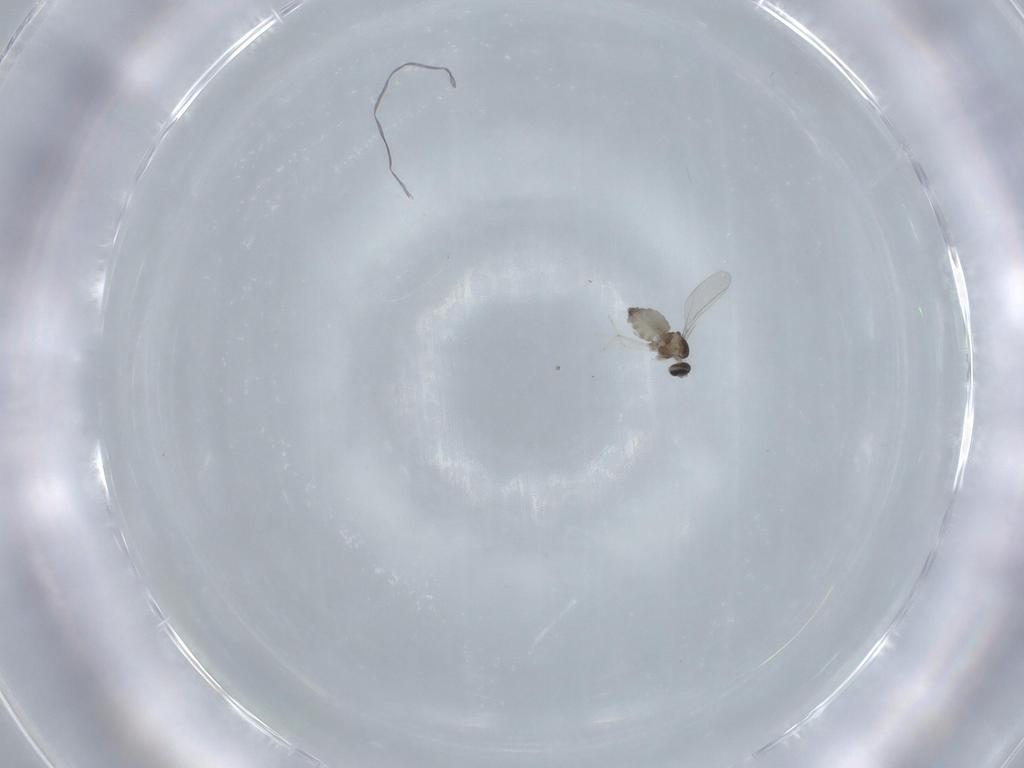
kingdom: Animalia
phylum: Arthropoda
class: Insecta
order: Diptera
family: Cecidomyiidae
